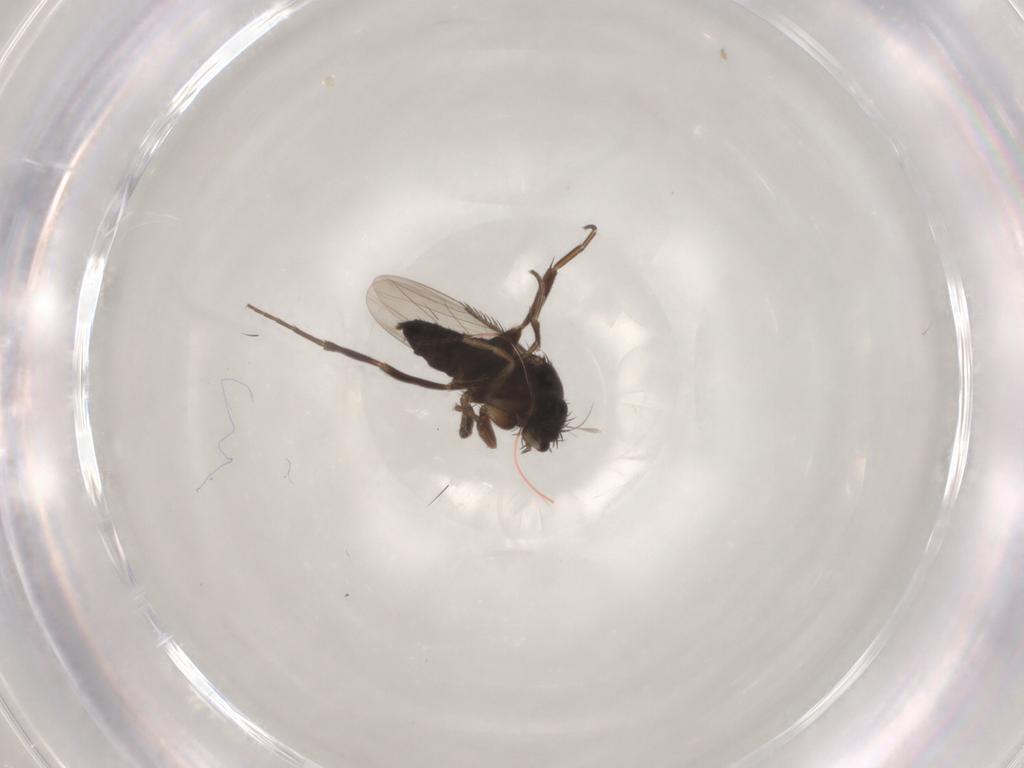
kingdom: Animalia
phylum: Arthropoda
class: Insecta
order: Diptera
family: Phoridae
